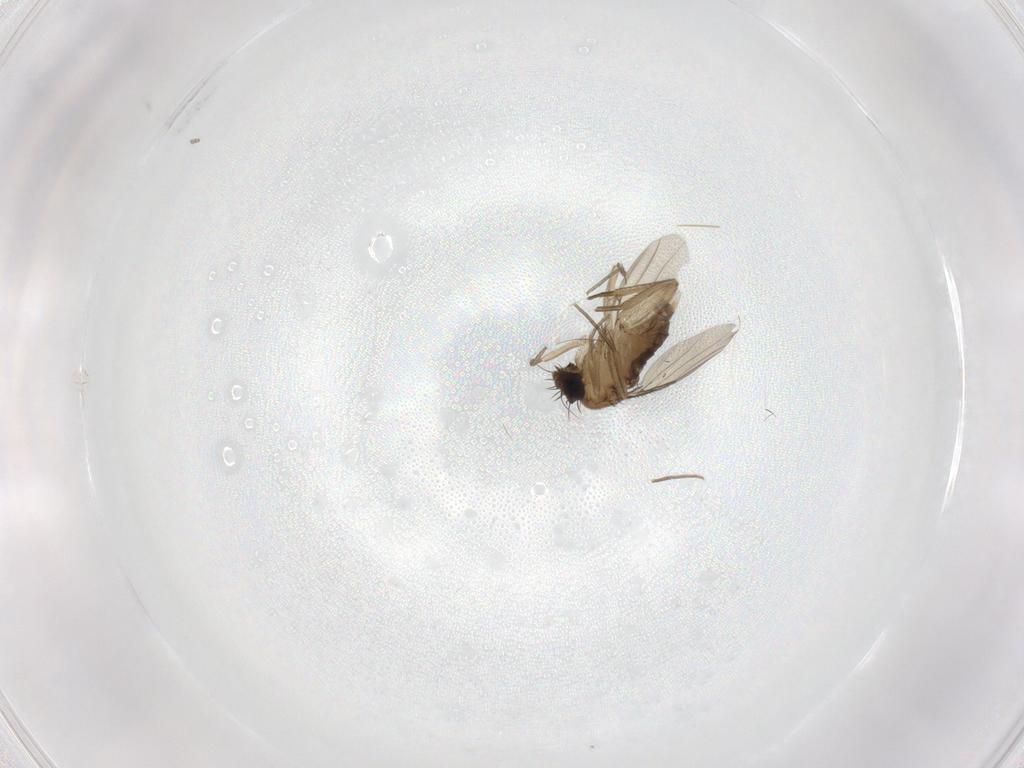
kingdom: Animalia
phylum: Arthropoda
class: Insecta
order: Diptera
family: Phoridae
